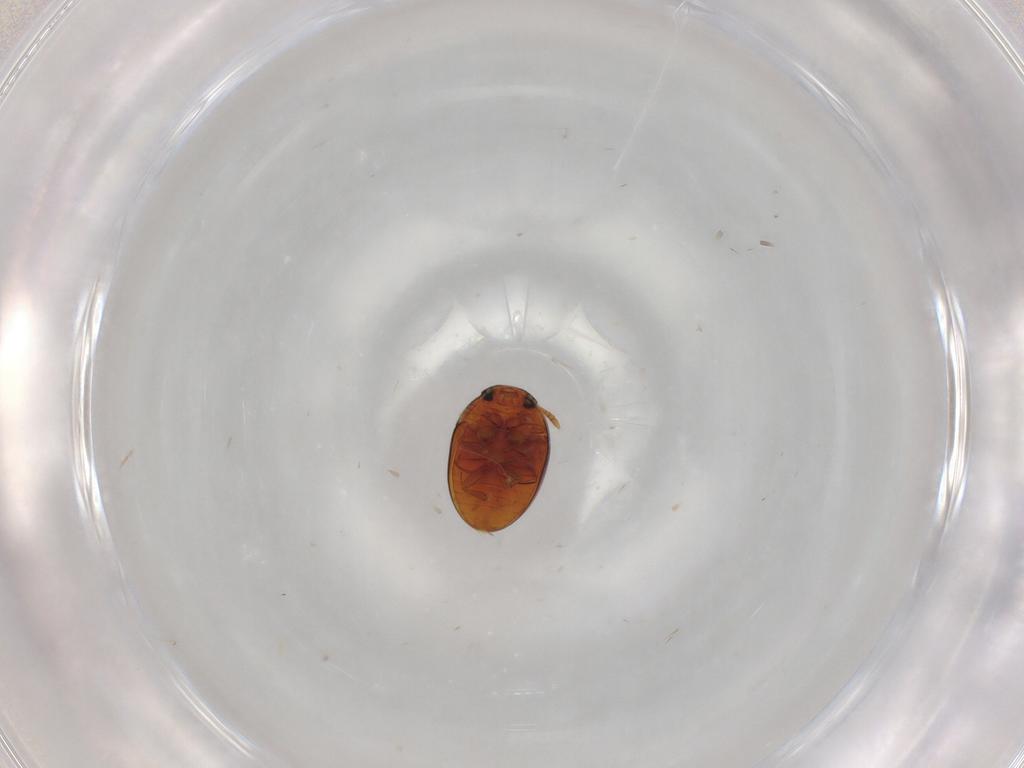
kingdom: Animalia
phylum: Arthropoda
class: Insecta
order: Coleoptera
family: Phalacridae
